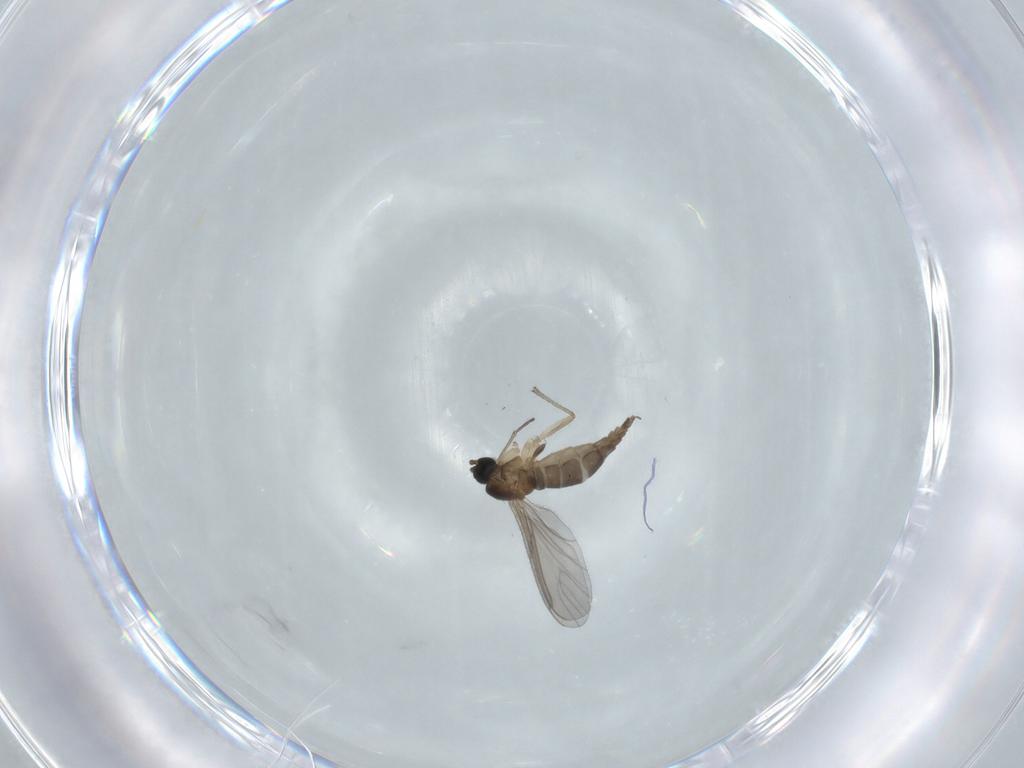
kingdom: Animalia
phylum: Arthropoda
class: Insecta
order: Diptera
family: Sciaridae
